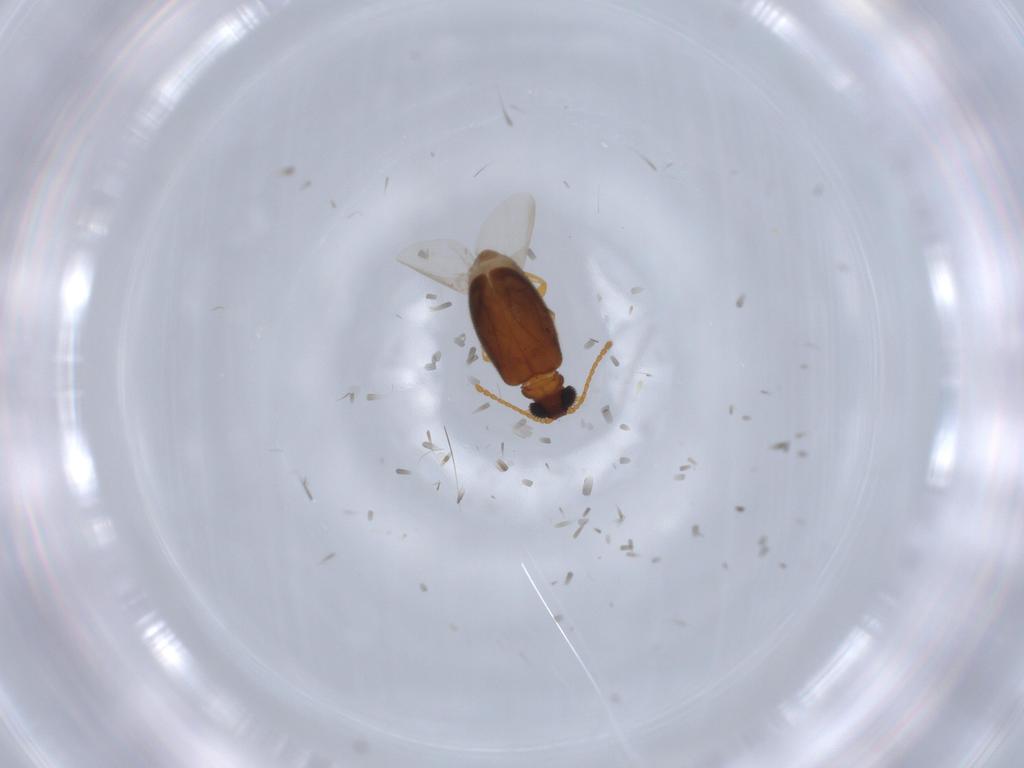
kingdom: Animalia
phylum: Arthropoda
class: Insecta
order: Coleoptera
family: Aderidae
